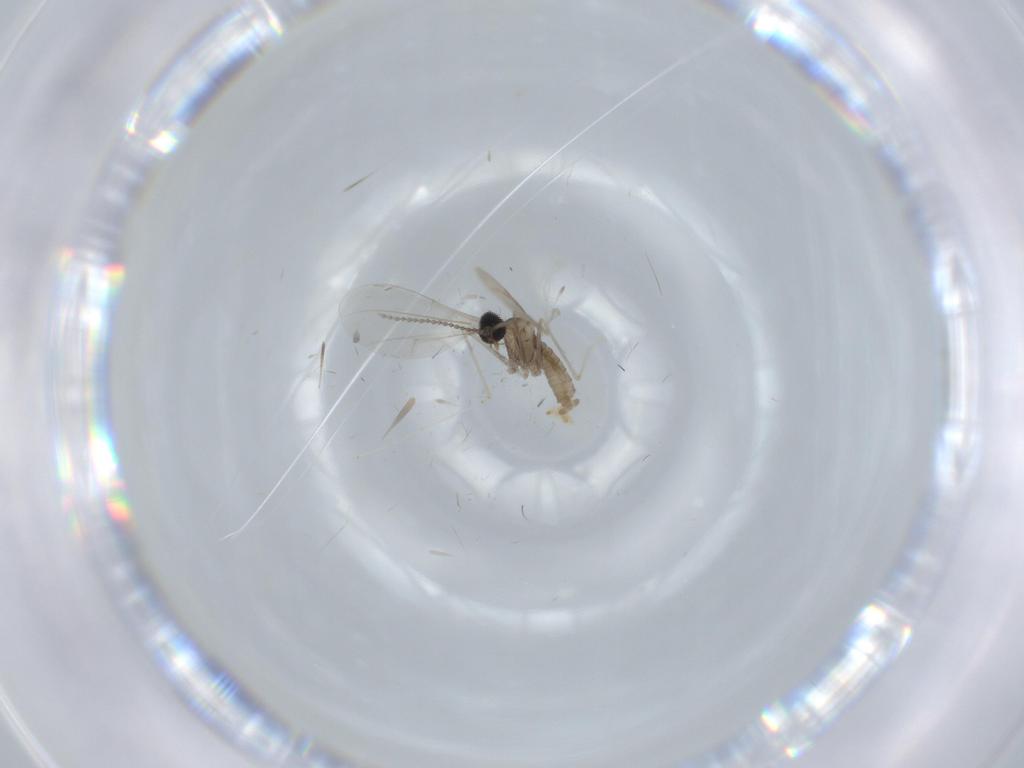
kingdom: Animalia
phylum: Arthropoda
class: Insecta
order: Diptera
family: Cecidomyiidae
